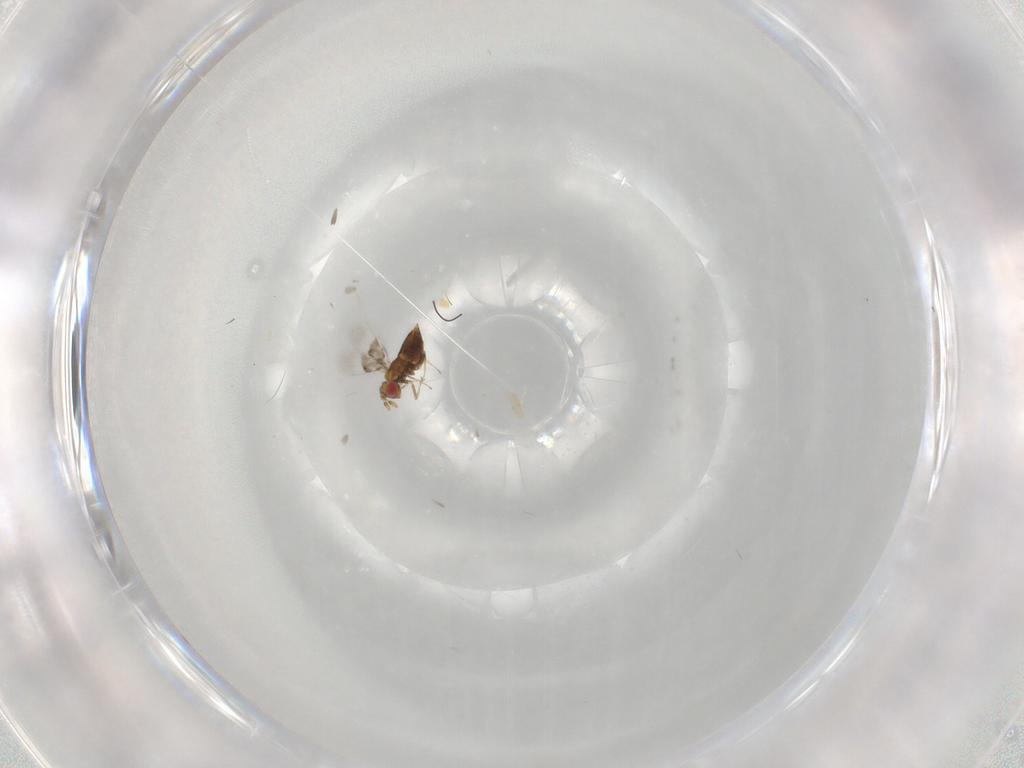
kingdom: Animalia
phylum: Arthropoda
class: Insecta
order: Hymenoptera
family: Trichogrammatidae
